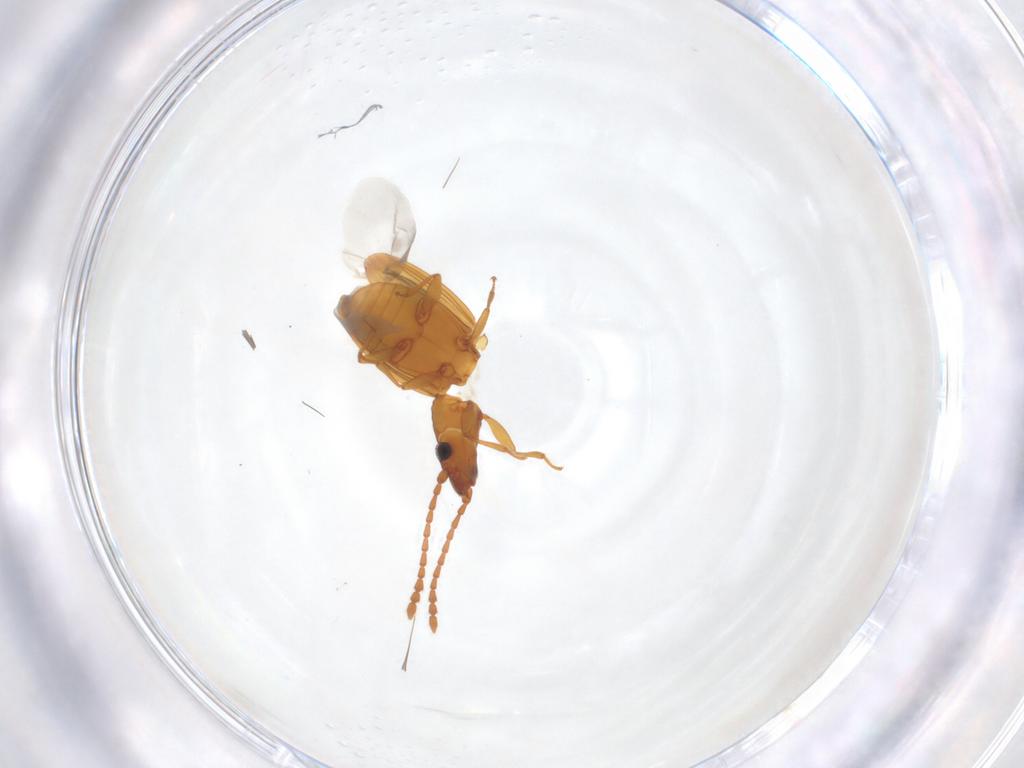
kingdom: Animalia
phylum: Arthropoda
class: Insecta
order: Coleoptera
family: Laemophloeidae
